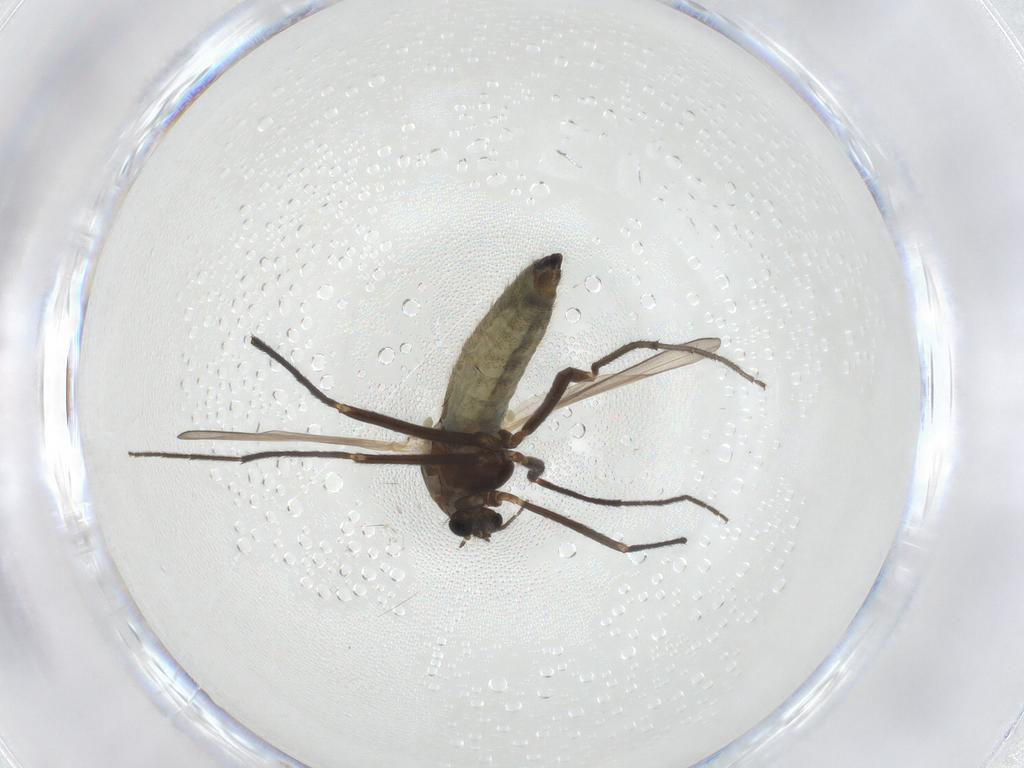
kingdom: Animalia
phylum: Arthropoda
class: Insecta
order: Diptera
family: Chironomidae
